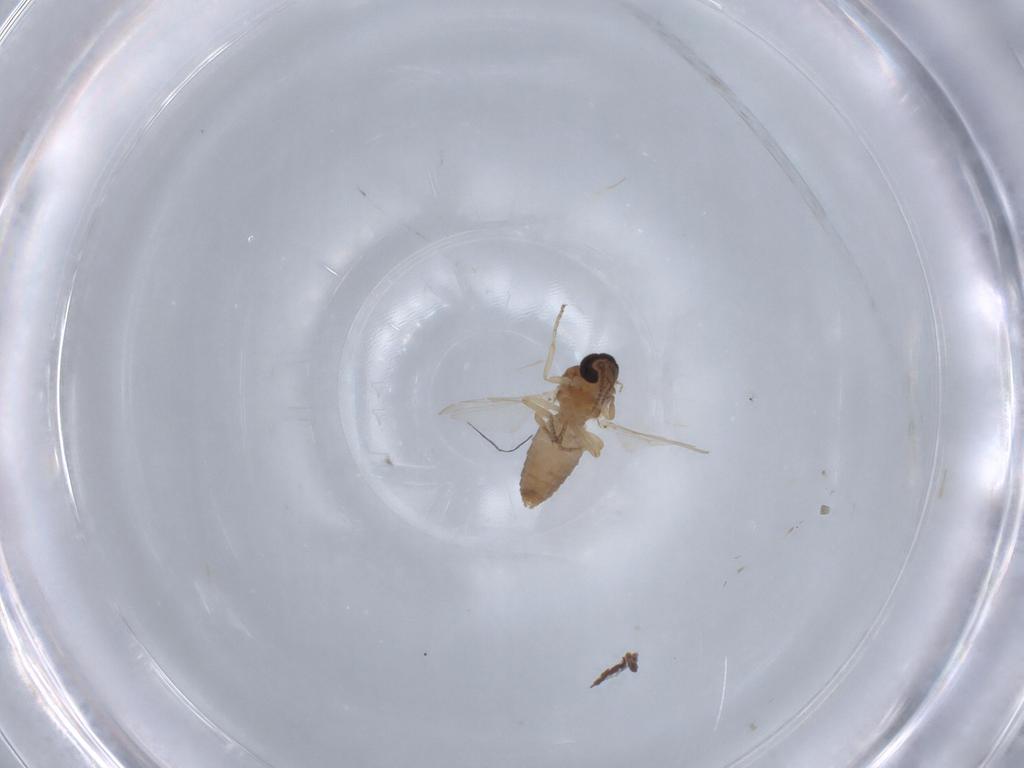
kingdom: Animalia
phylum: Arthropoda
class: Insecta
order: Diptera
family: Ceratopogonidae
